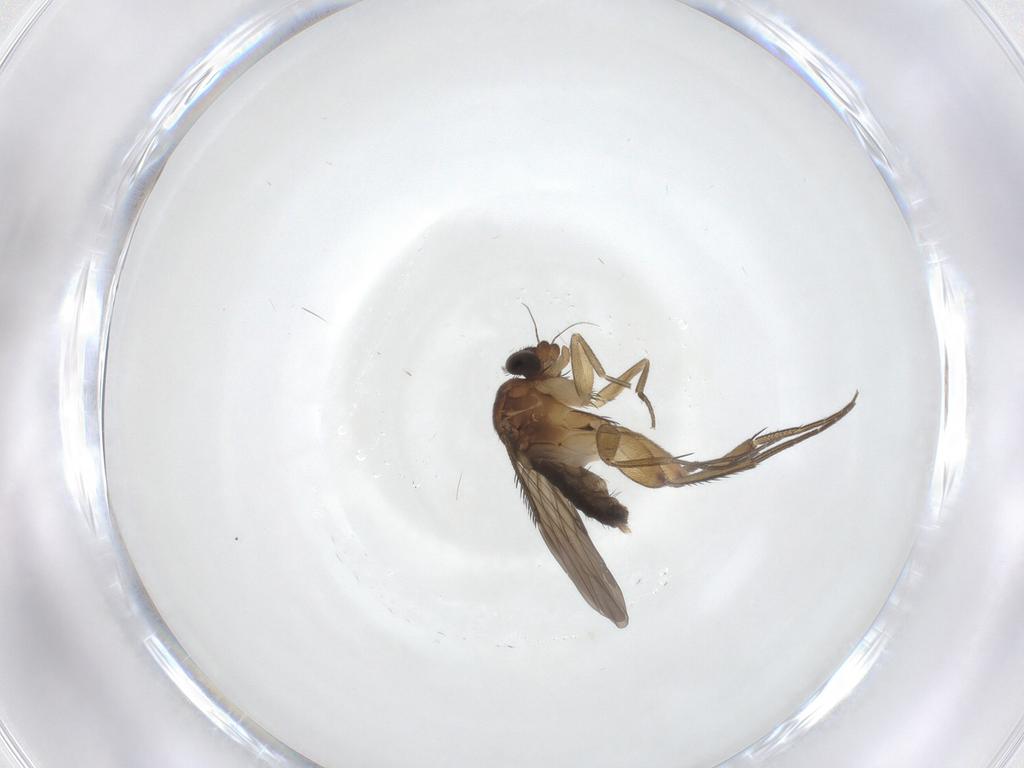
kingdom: Animalia
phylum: Arthropoda
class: Insecta
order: Diptera
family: Phoridae
